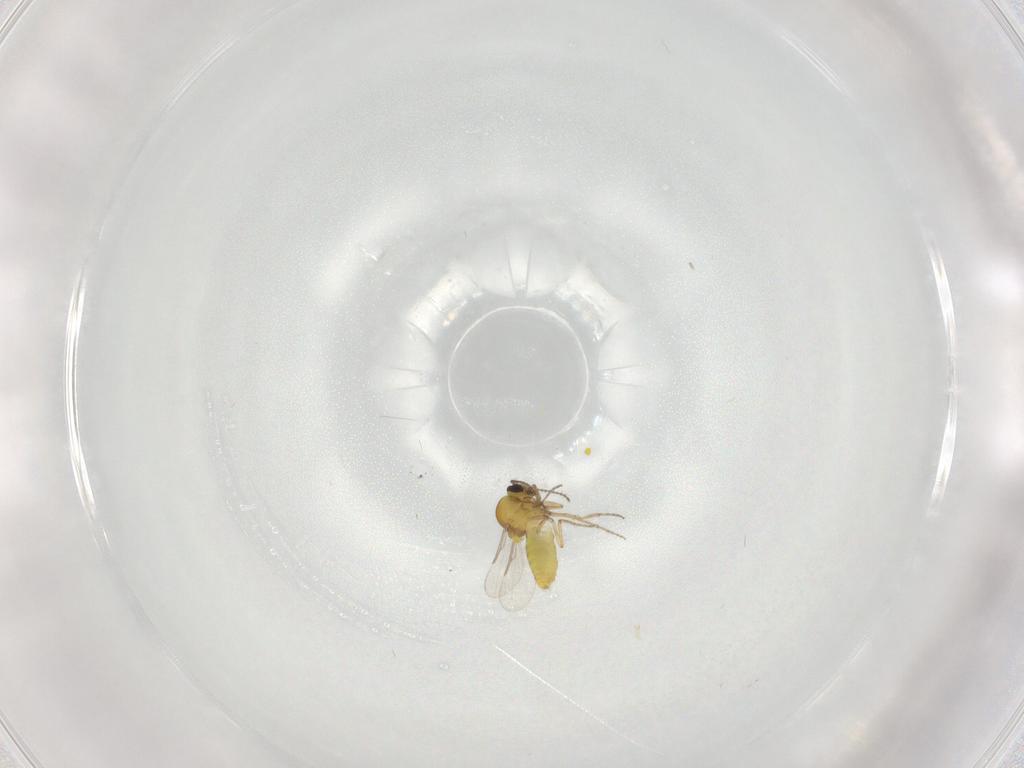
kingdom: Animalia
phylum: Arthropoda
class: Insecta
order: Diptera
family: Ceratopogonidae
